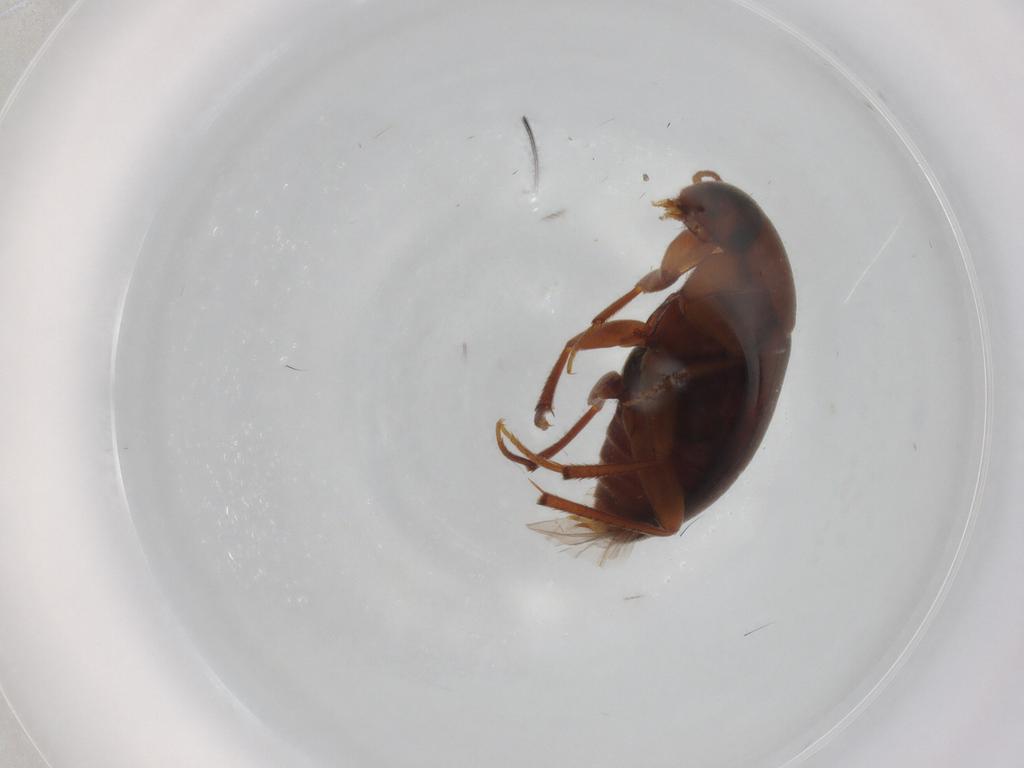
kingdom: Animalia
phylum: Arthropoda
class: Insecta
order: Coleoptera
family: Leiodidae
